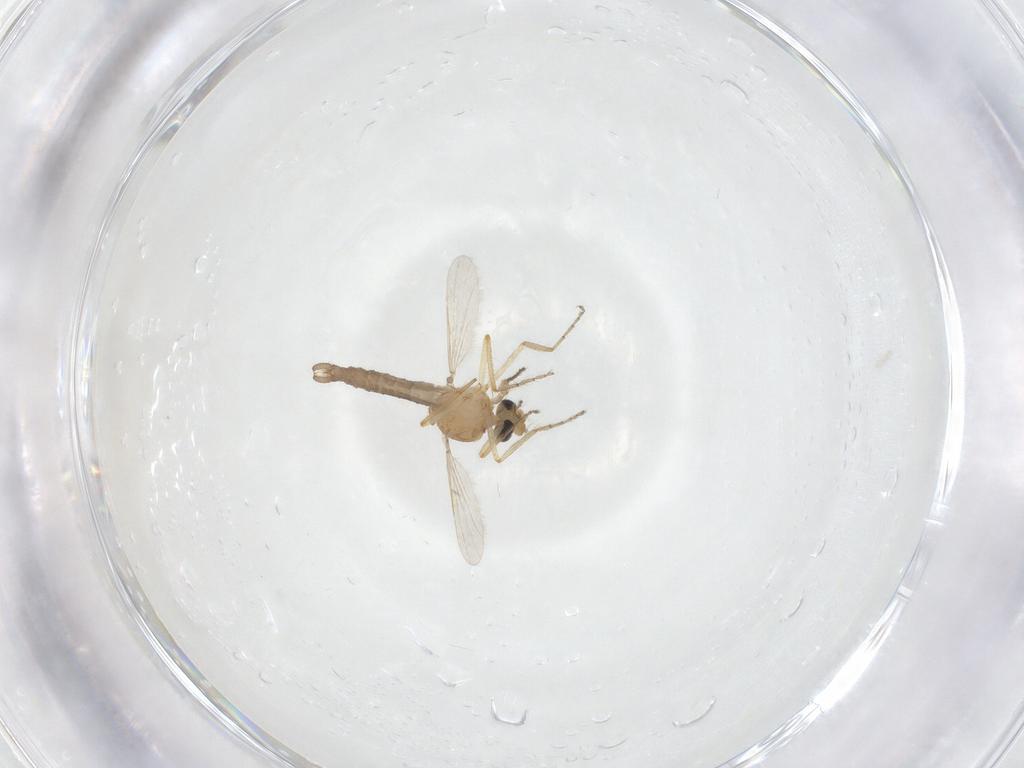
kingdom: Animalia
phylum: Arthropoda
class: Insecta
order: Diptera
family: Ceratopogonidae
